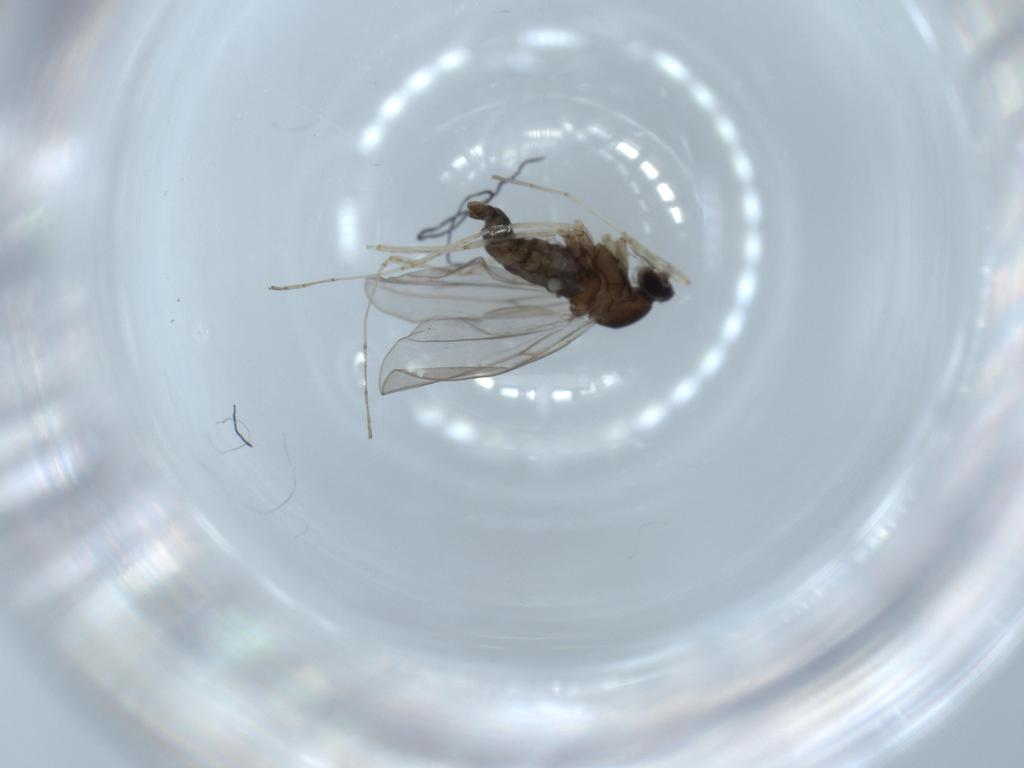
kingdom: Animalia
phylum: Arthropoda
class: Insecta
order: Diptera
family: Cecidomyiidae
